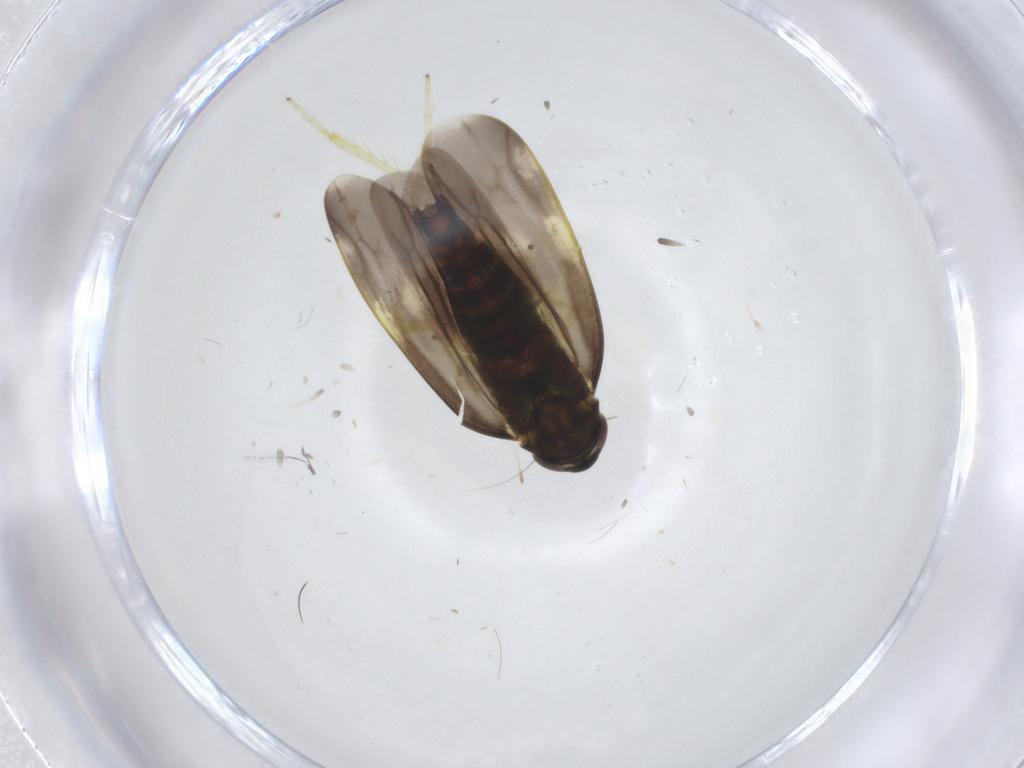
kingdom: Animalia
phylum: Arthropoda
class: Insecta
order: Hemiptera
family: Cicadellidae
